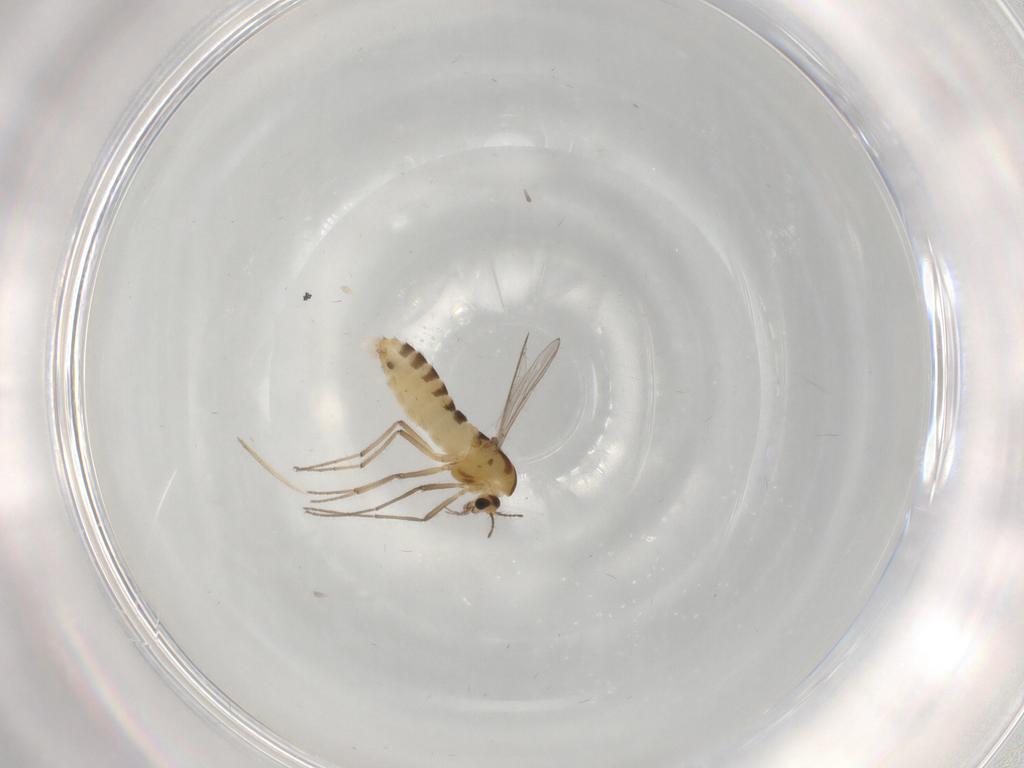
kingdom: Animalia
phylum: Arthropoda
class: Insecta
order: Diptera
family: Chironomidae
